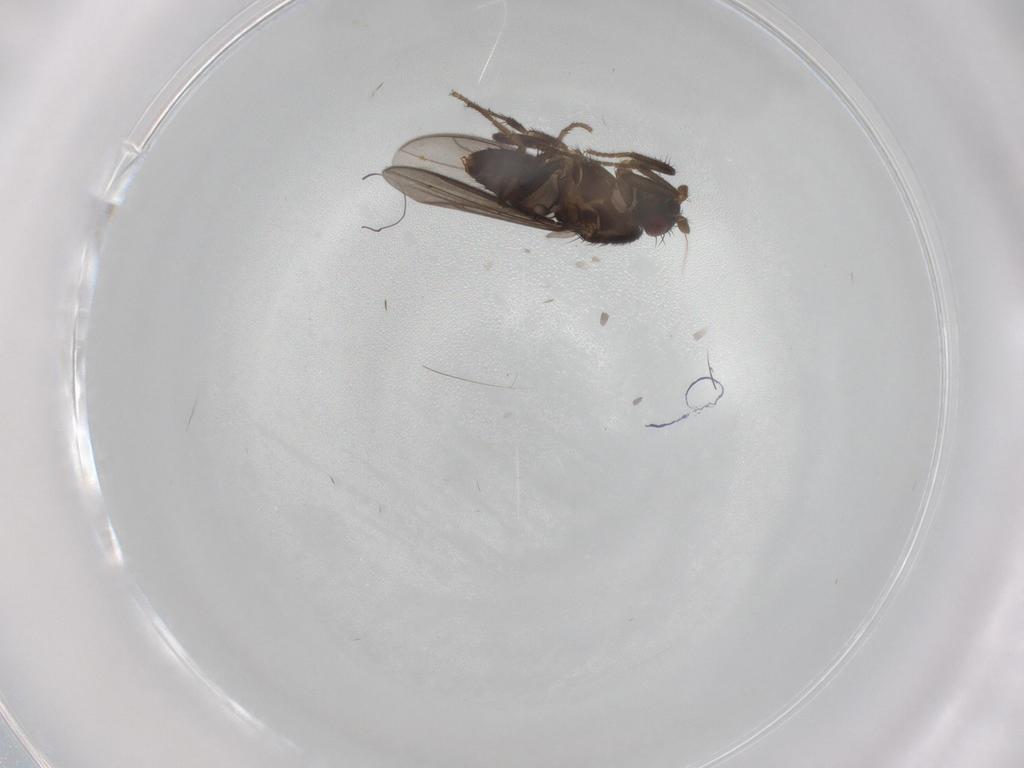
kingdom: Animalia
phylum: Arthropoda
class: Insecta
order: Diptera
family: Sphaeroceridae
